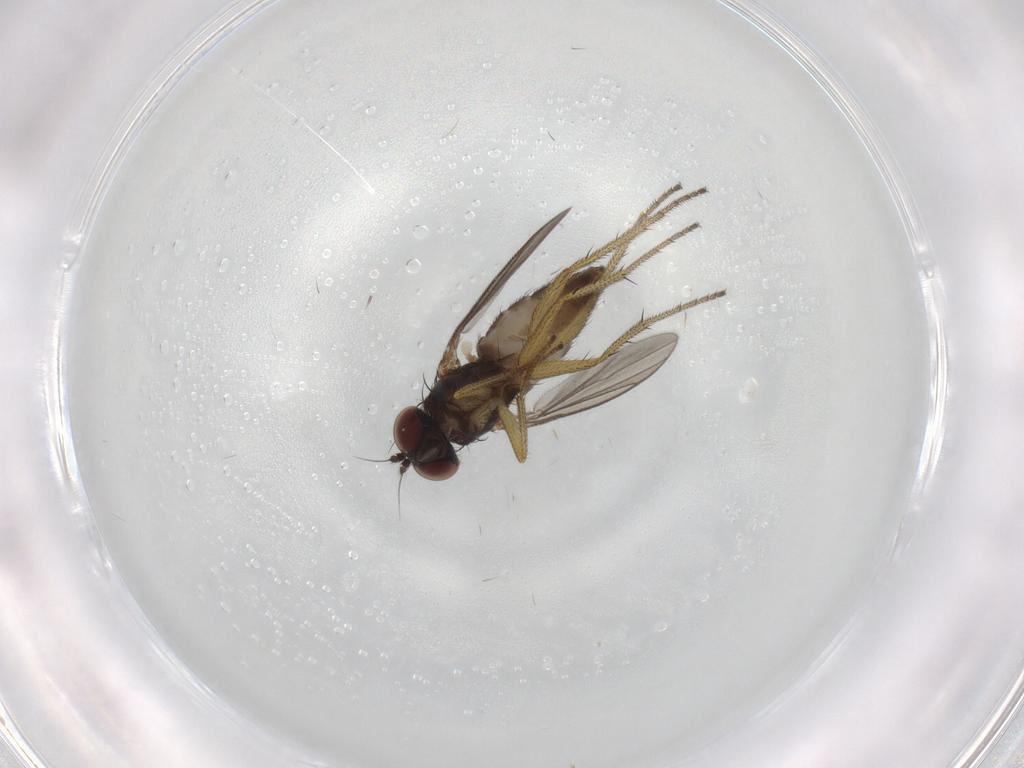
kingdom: Animalia
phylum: Arthropoda
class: Insecta
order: Diptera
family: Dolichopodidae
